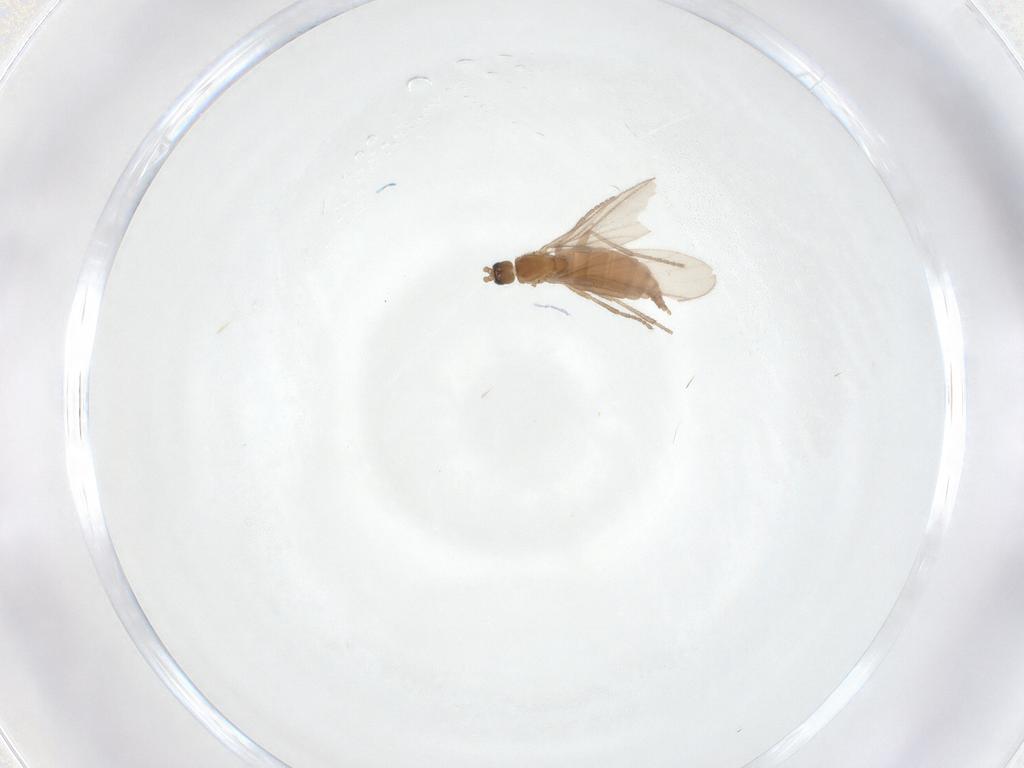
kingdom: Animalia
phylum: Arthropoda
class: Insecta
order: Diptera
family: Sciaridae
